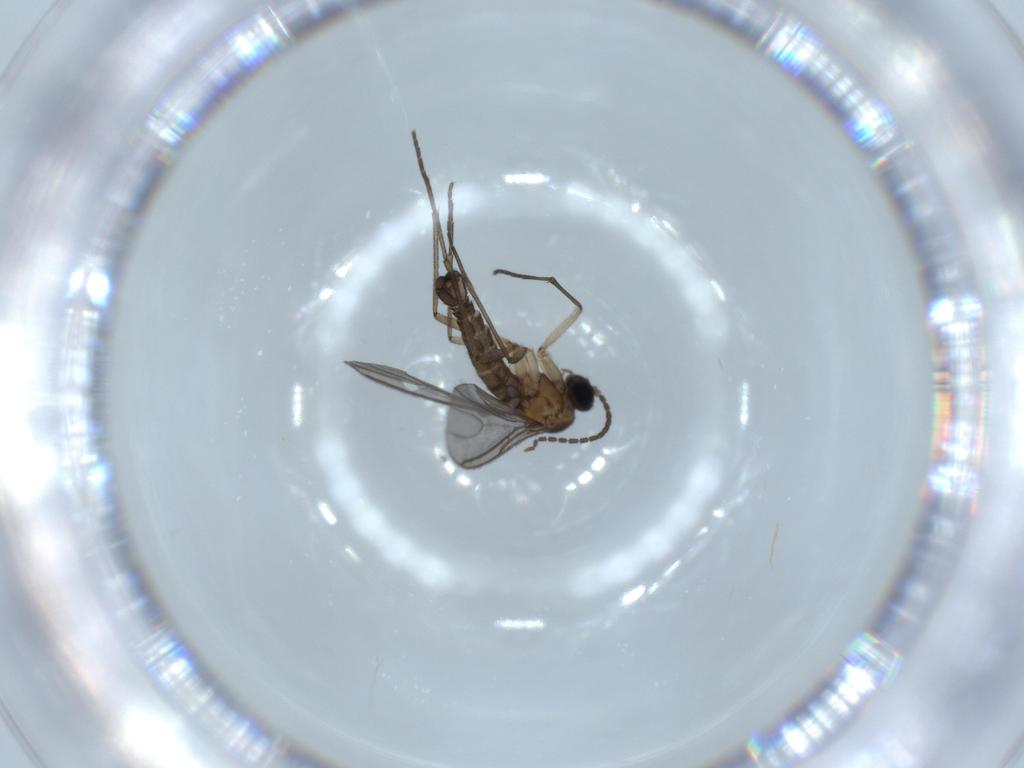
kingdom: Animalia
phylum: Arthropoda
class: Insecta
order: Diptera
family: Sciaridae
